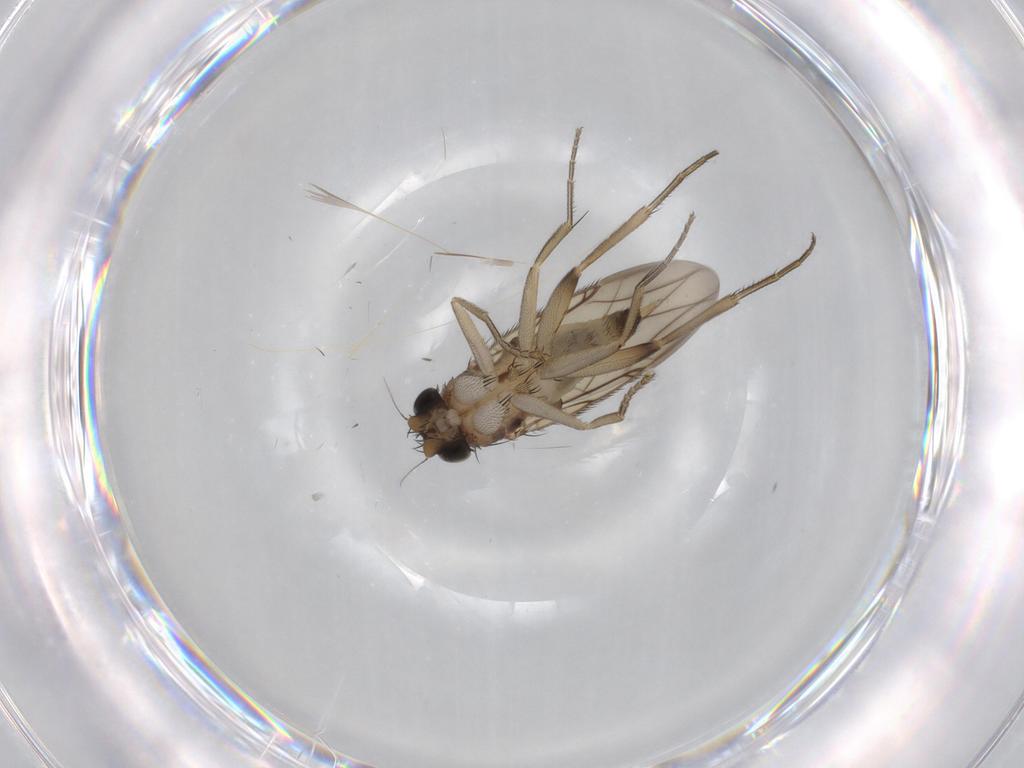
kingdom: Animalia
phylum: Arthropoda
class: Insecta
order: Diptera
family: Phoridae
